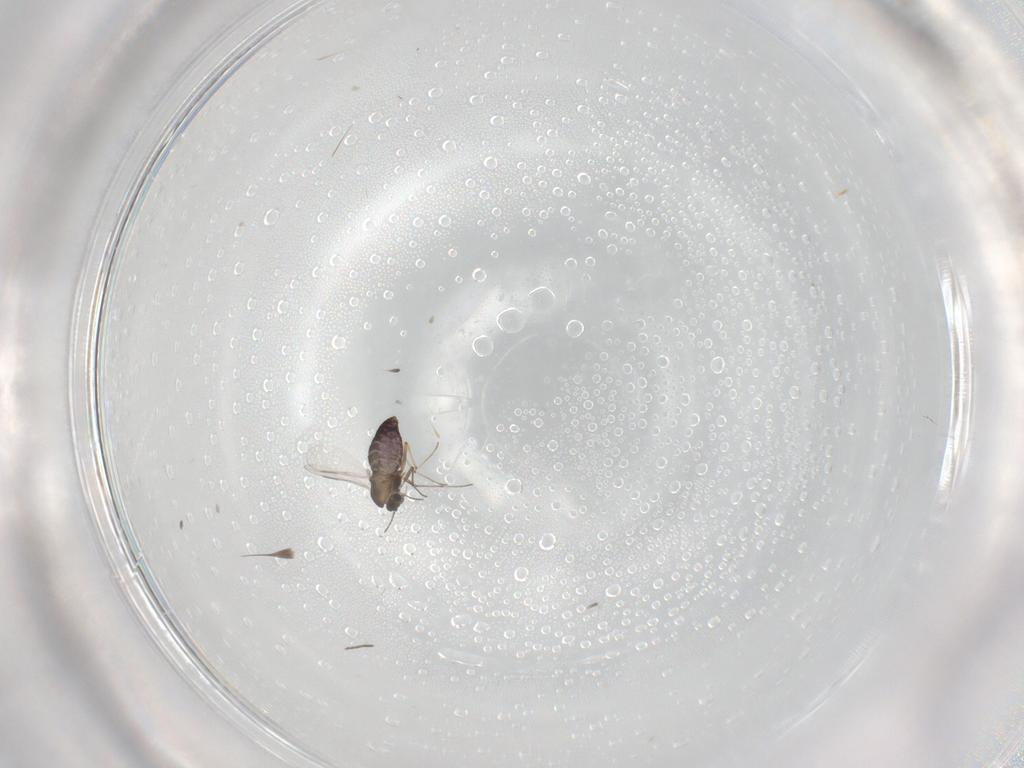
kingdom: Animalia
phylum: Arthropoda
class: Insecta
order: Diptera
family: Chironomidae
